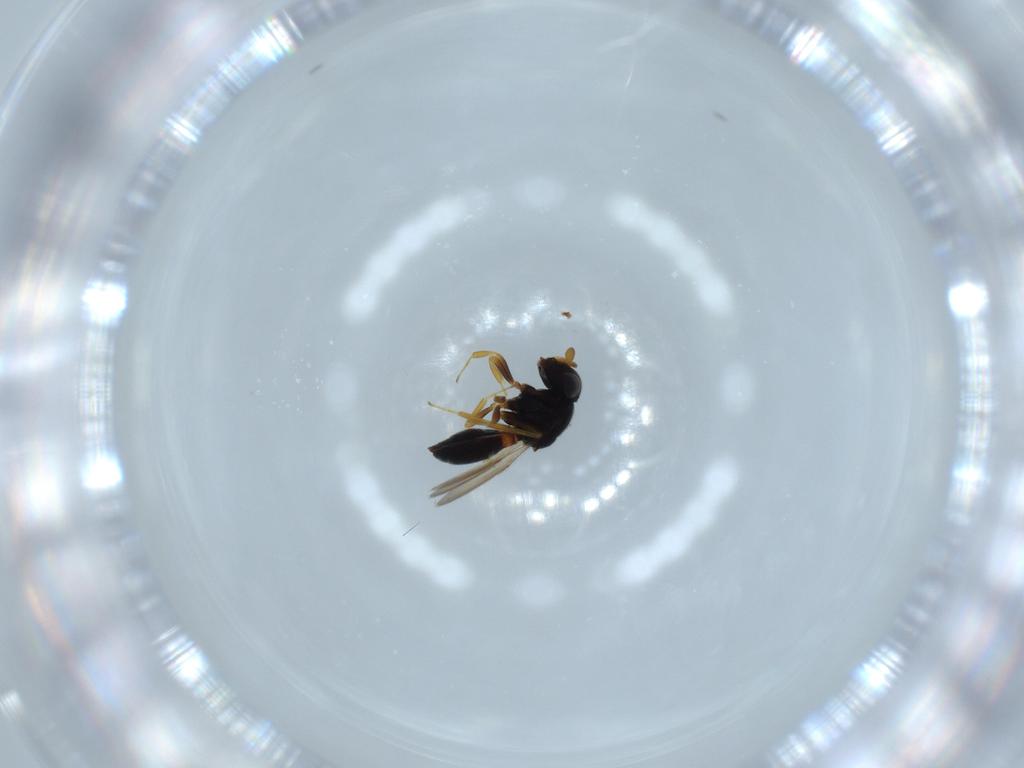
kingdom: Animalia
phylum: Arthropoda
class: Insecta
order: Hymenoptera
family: Scelionidae
